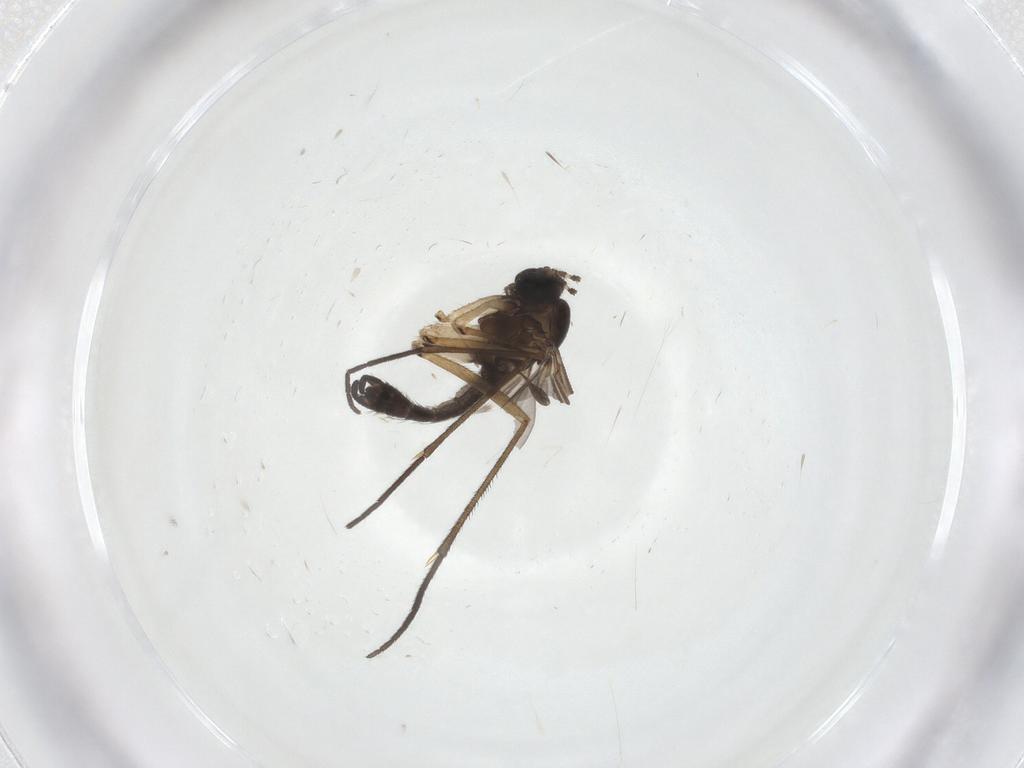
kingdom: Animalia
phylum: Arthropoda
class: Insecta
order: Diptera
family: Sciaridae
